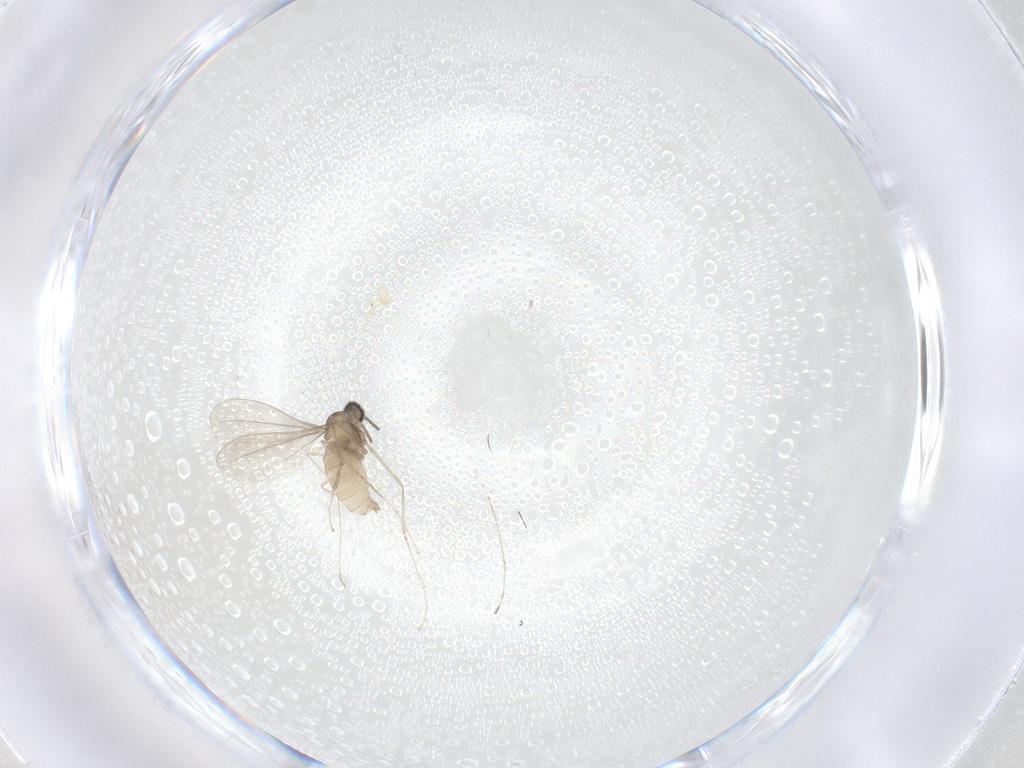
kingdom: Animalia
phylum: Arthropoda
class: Insecta
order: Diptera
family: Cecidomyiidae
